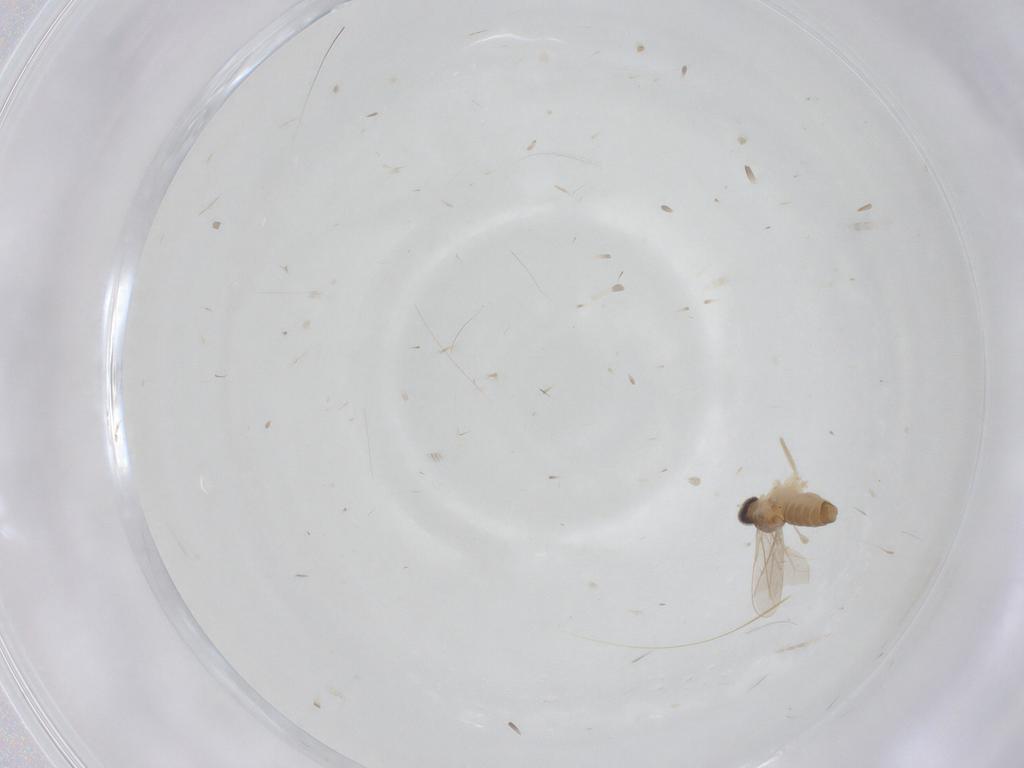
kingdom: Animalia
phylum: Arthropoda
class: Insecta
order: Diptera
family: Cecidomyiidae
